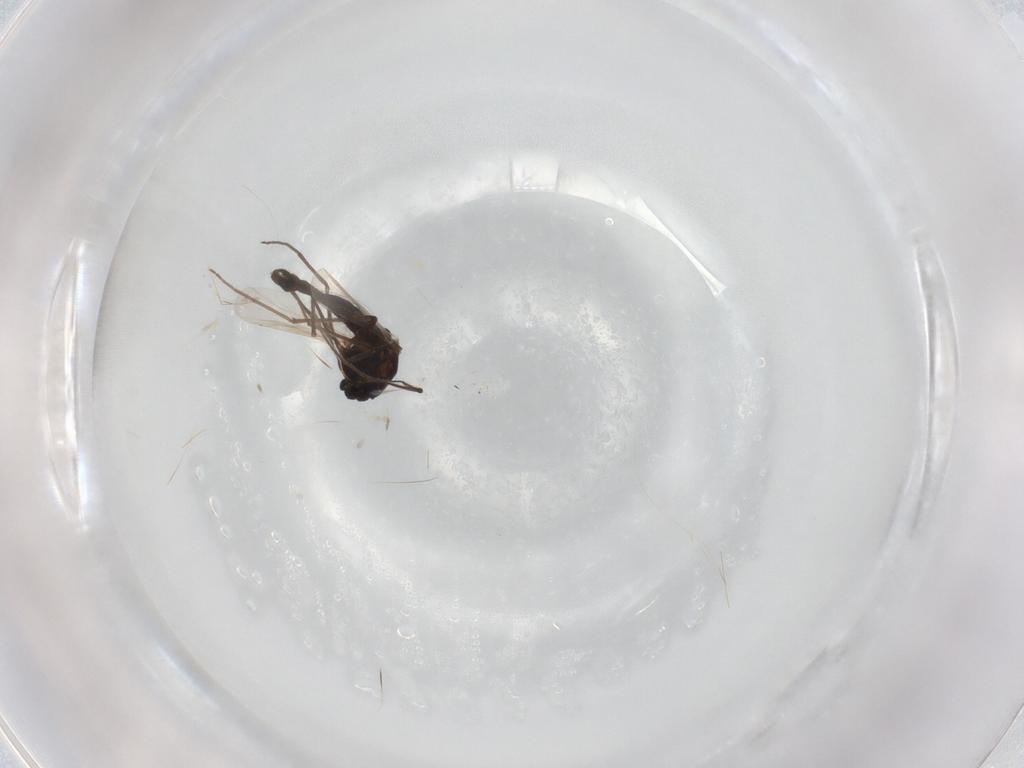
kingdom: Animalia
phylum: Arthropoda
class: Insecta
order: Diptera
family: Chironomidae
